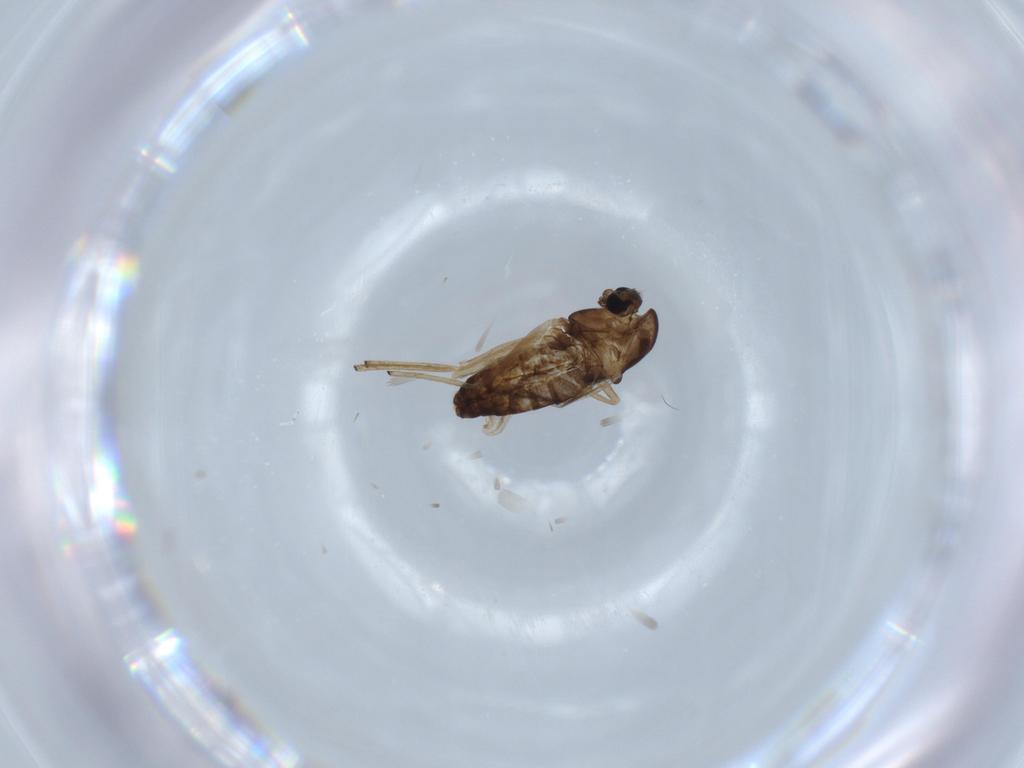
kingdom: Animalia
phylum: Arthropoda
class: Insecta
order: Diptera
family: Chironomidae
